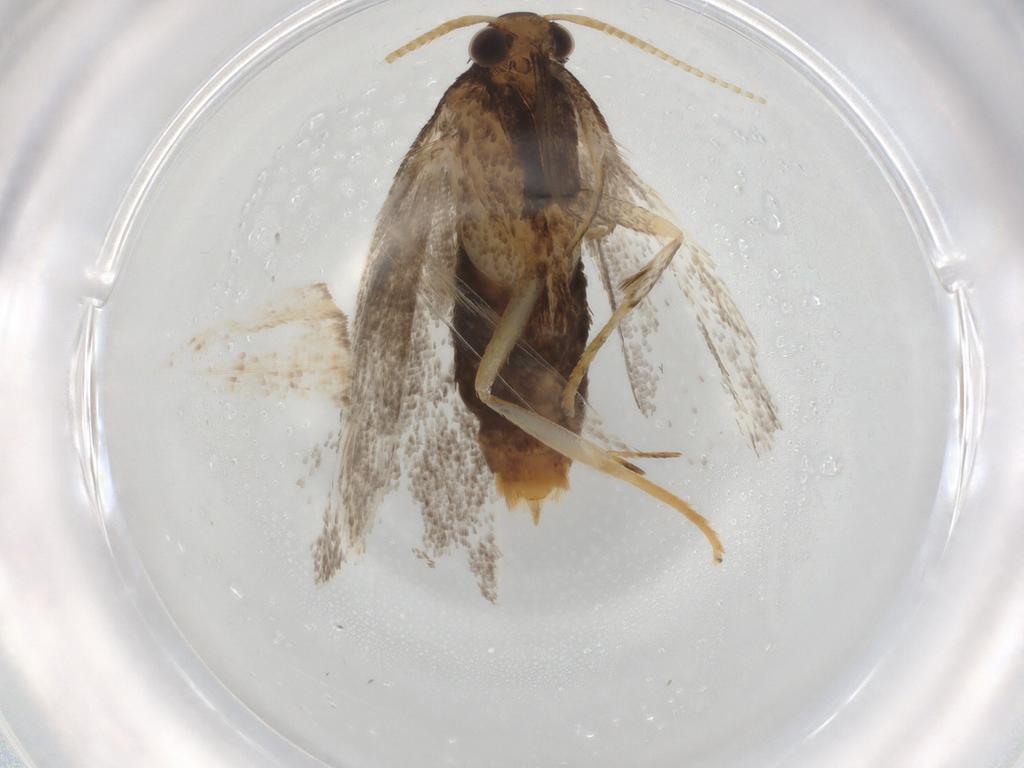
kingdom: Animalia
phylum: Arthropoda
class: Insecta
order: Lepidoptera
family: Lecithoceridae
